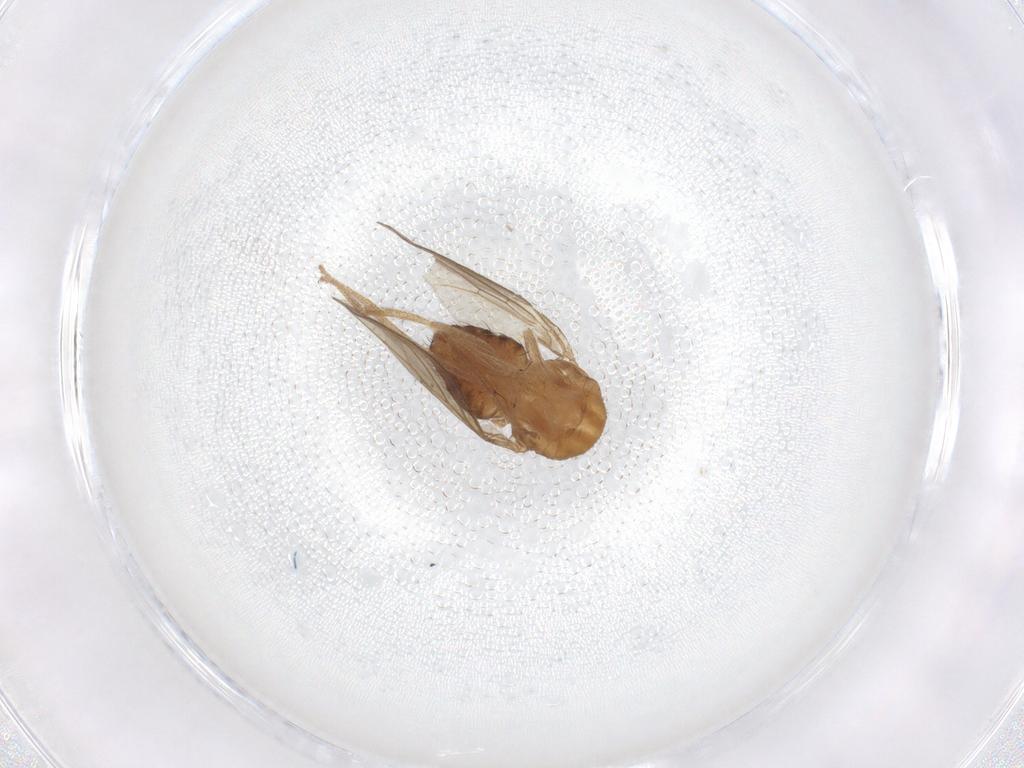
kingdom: Animalia
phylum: Arthropoda
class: Insecta
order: Diptera
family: Drosophilidae
